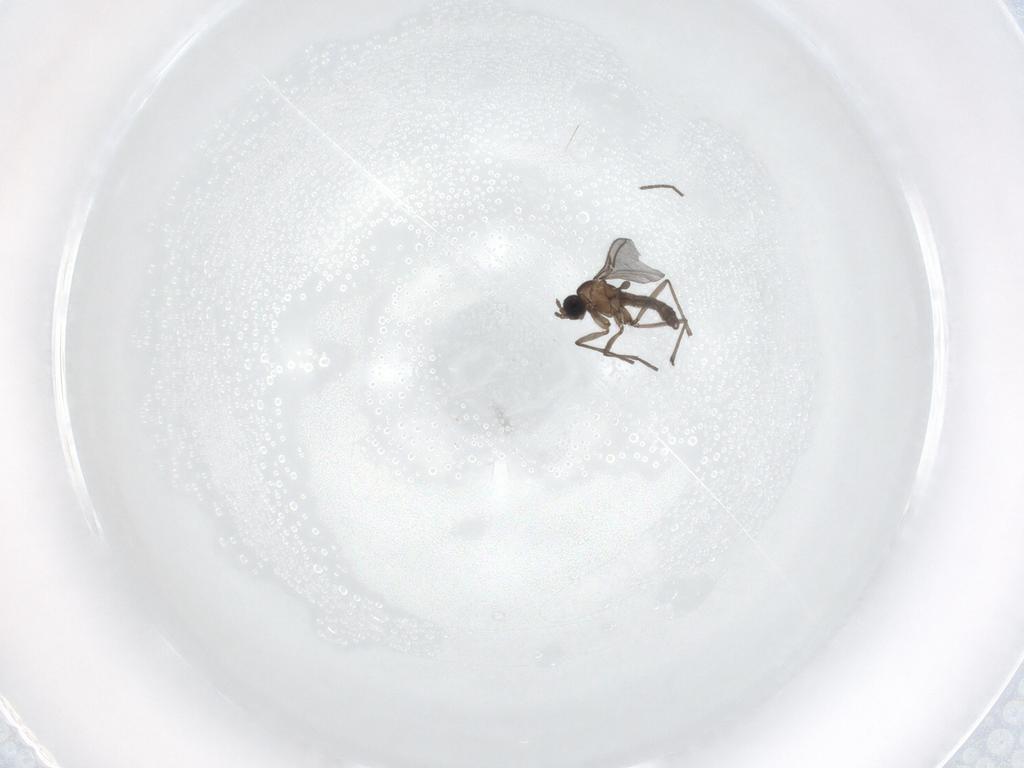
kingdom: Animalia
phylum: Arthropoda
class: Insecta
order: Diptera
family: Sciaridae
